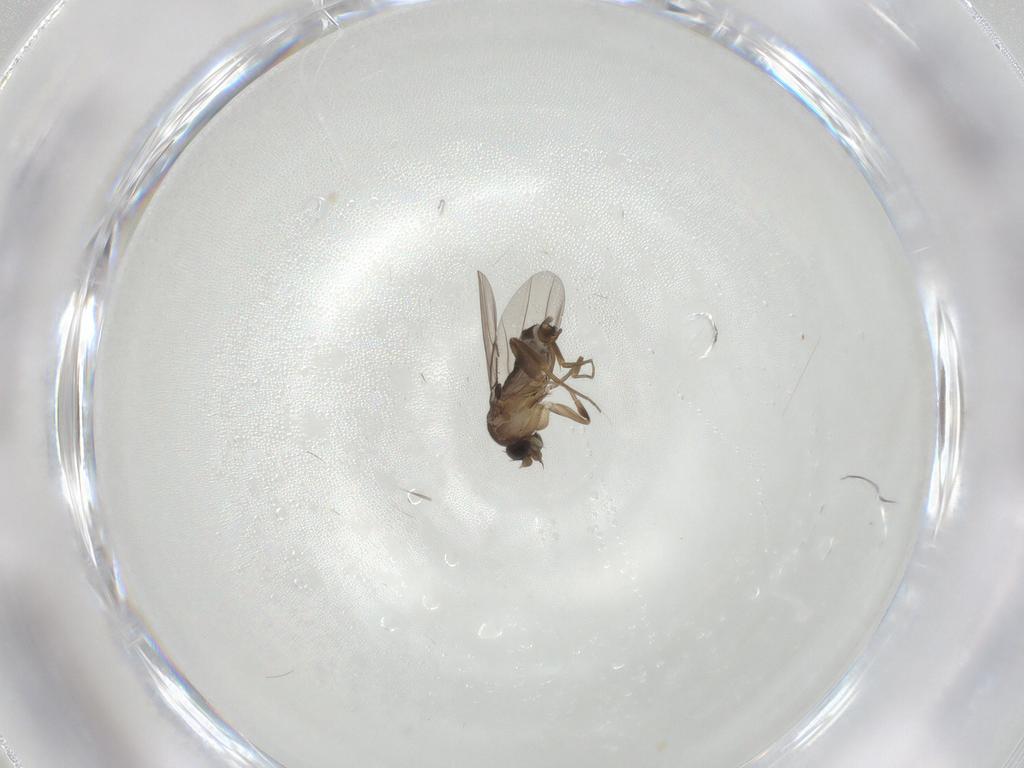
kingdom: Animalia
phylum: Arthropoda
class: Insecta
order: Diptera
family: Phoridae
